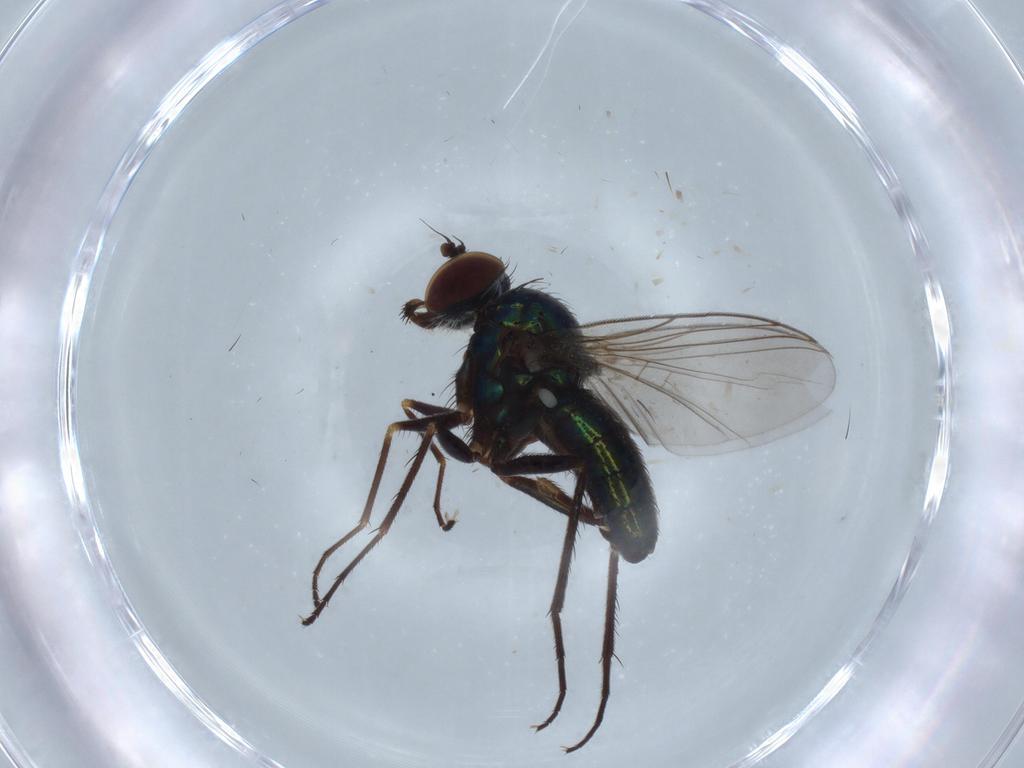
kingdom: Animalia
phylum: Arthropoda
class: Insecta
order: Diptera
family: Dolichopodidae
